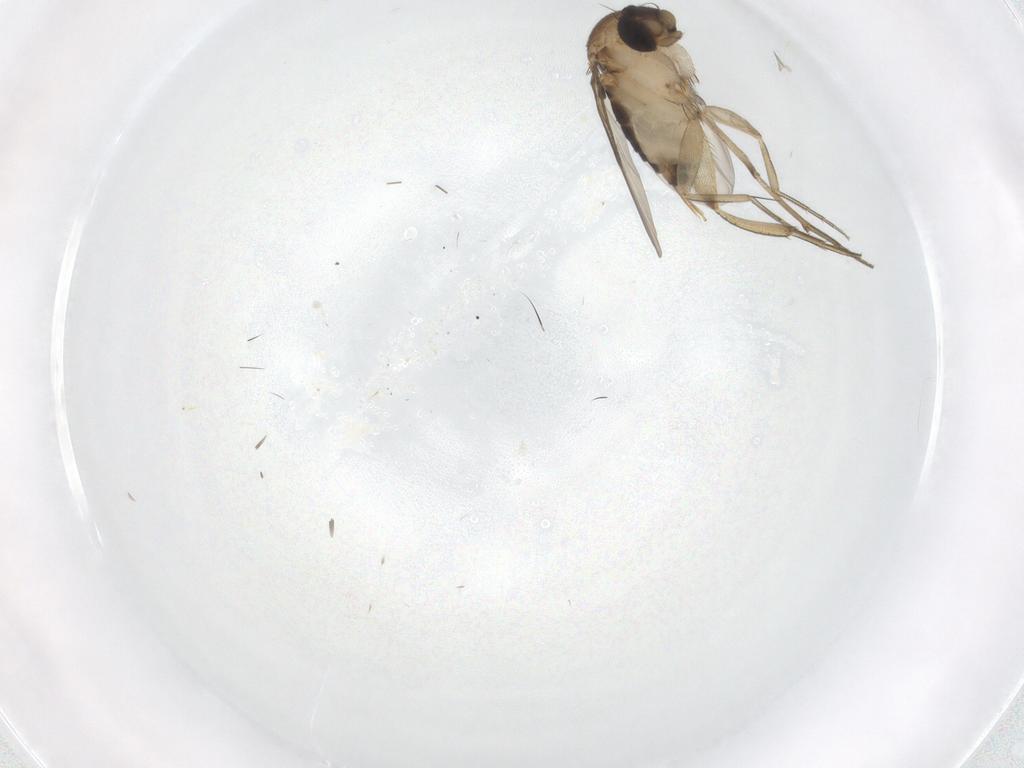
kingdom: Animalia
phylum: Arthropoda
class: Insecta
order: Diptera
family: Cecidomyiidae
